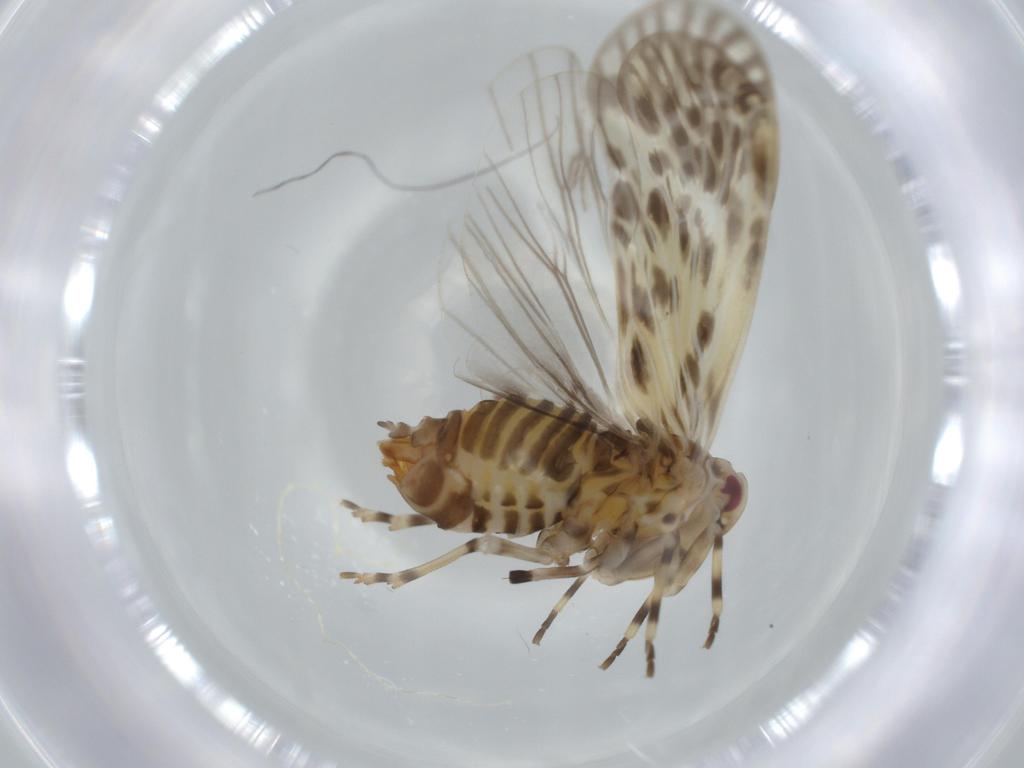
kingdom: Animalia
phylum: Arthropoda
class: Insecta
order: Hemiptera
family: Derbidae
